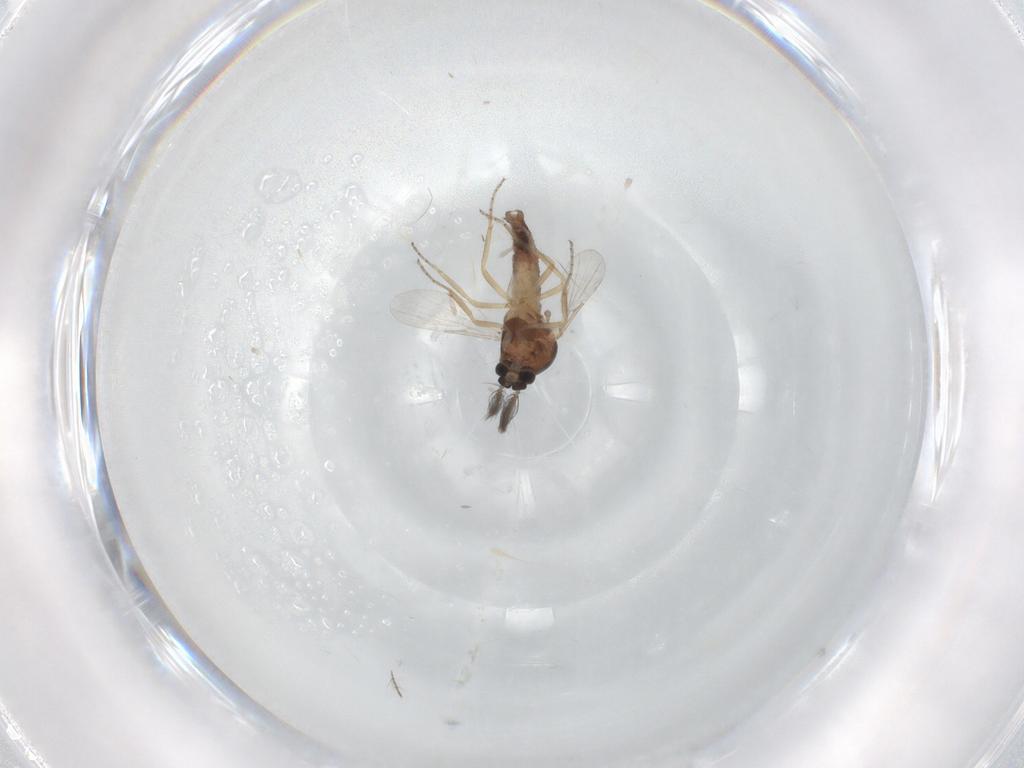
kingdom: Animalia
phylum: Arthropoda
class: Insecta
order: Diptera
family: Ceratopogonidae
